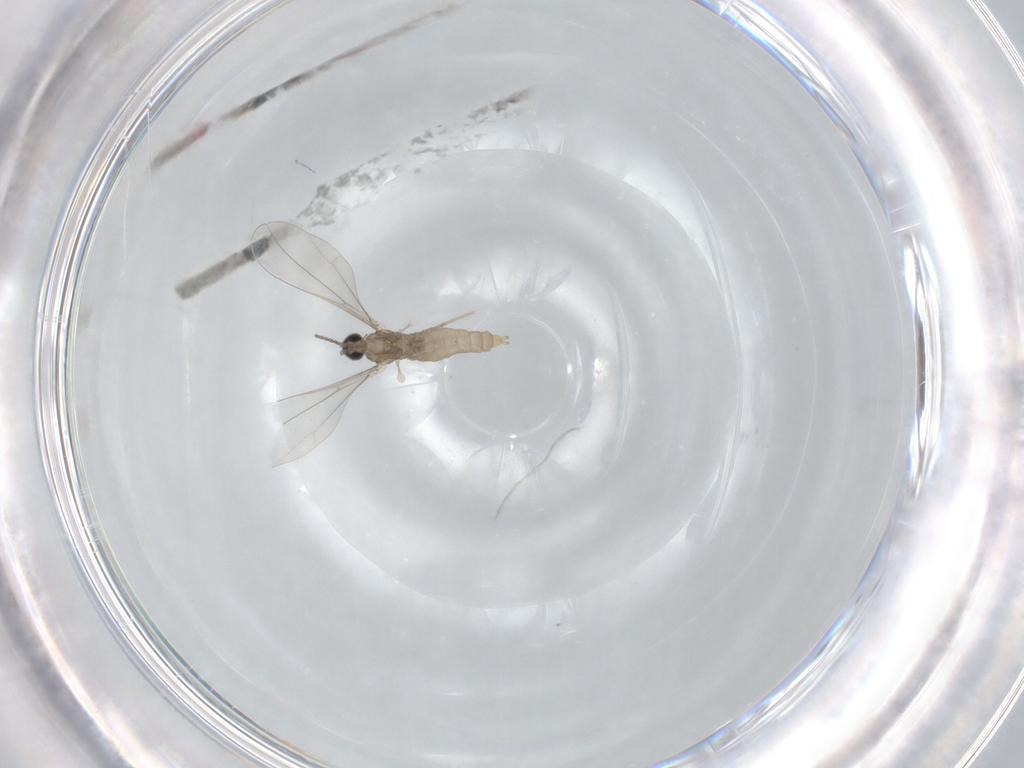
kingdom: Animalia
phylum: Arthropoda
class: Insecta
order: Diptera
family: Cecidomyiidae
